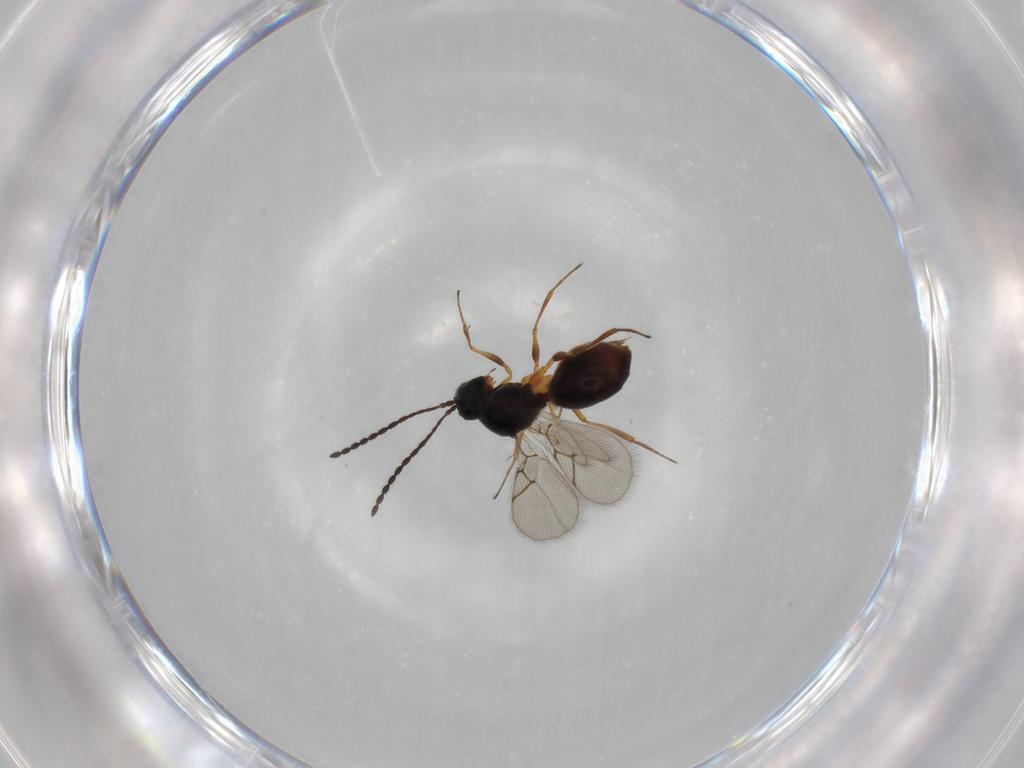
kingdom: Animalia
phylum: Arthropoda
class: Insecta
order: Hymenoptera
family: Figitidae
